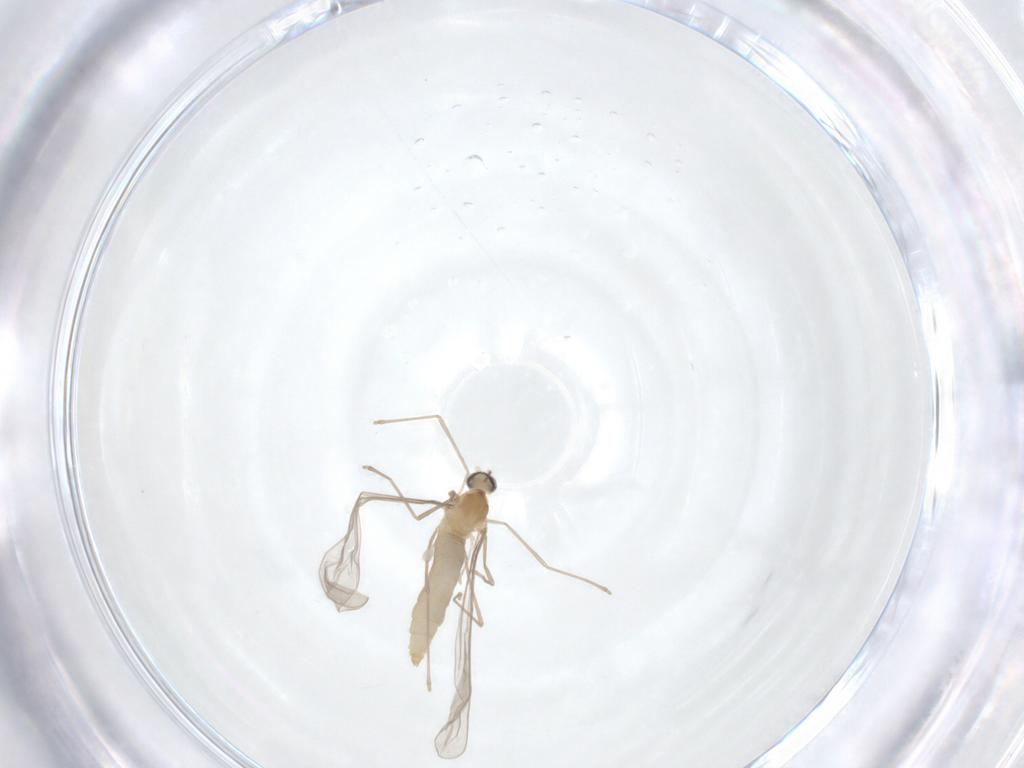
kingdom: Animalia
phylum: Arthropoda
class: Insecta
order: Diptera
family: Cecidomyiidae
